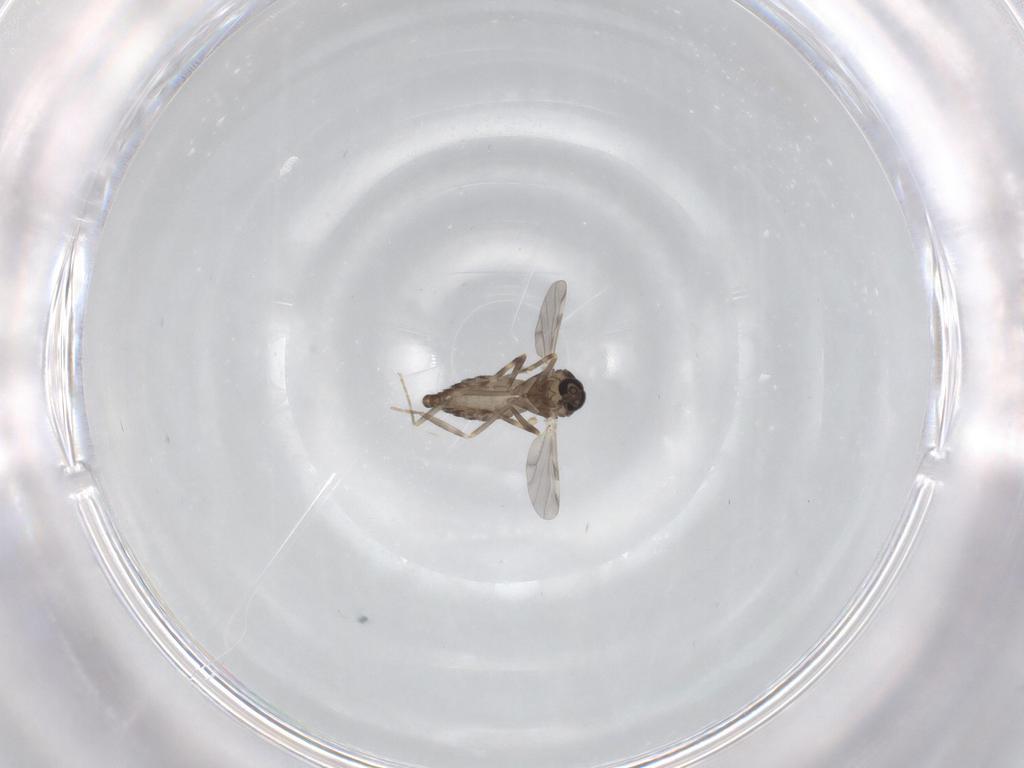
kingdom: Animalia
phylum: Arthropoda
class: Insecta
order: Diptera
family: Ceratopogonidae
